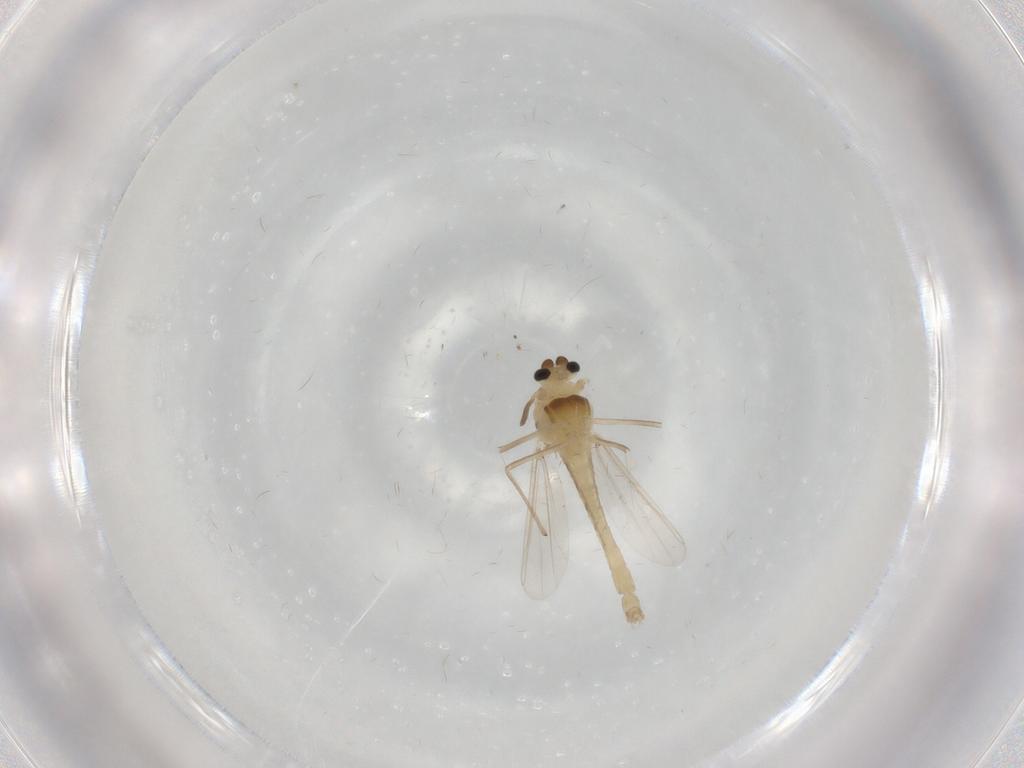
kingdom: Animalia
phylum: Arthropoda
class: Insecta
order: Diptera
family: Chironomidae
